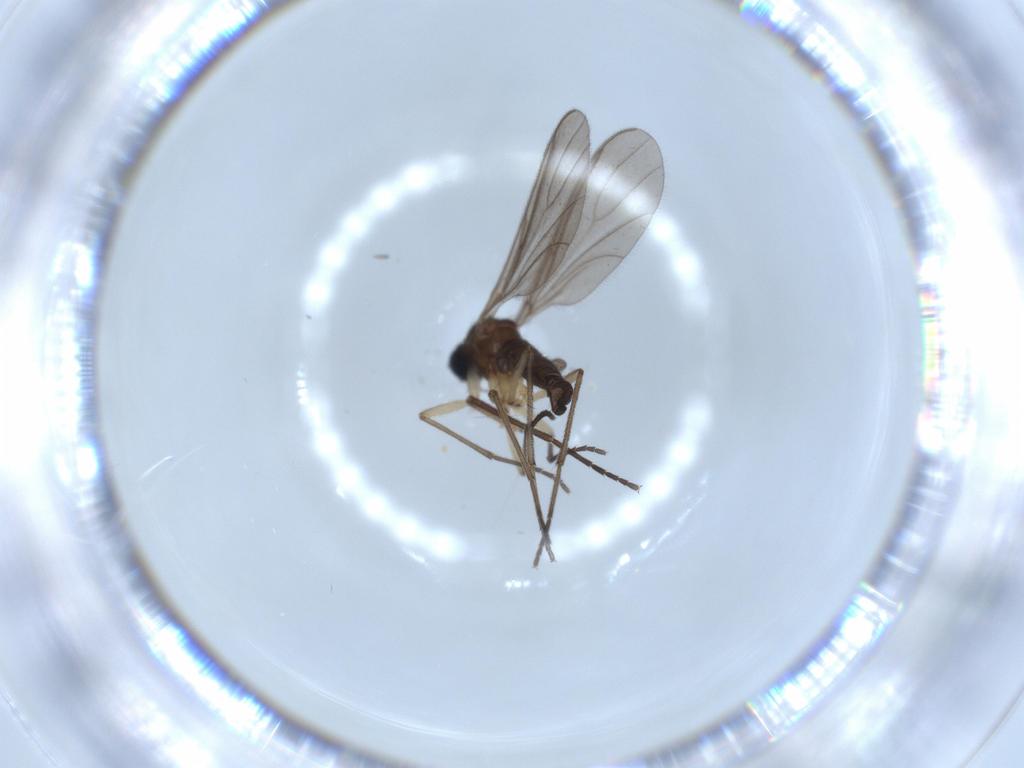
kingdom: Animalia
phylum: Arthropoda
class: Insecta
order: Diptera
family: Sciaridae
